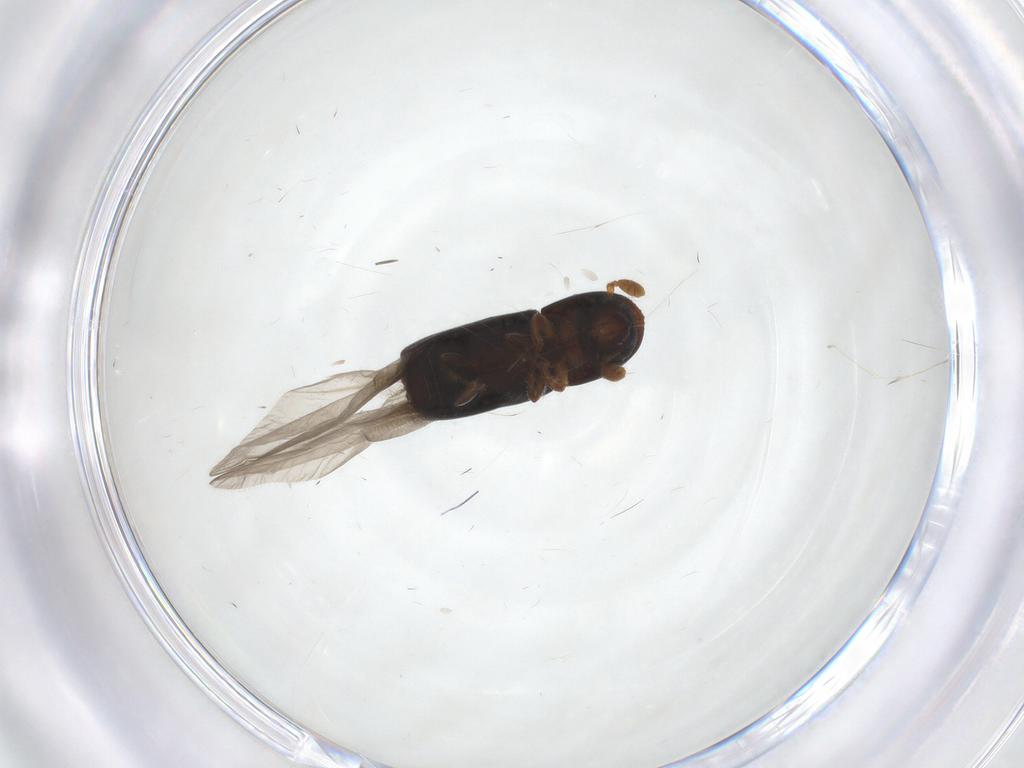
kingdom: Animalia
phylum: Arthropoda
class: Insecta
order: Coleoptera
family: Curculionidae
